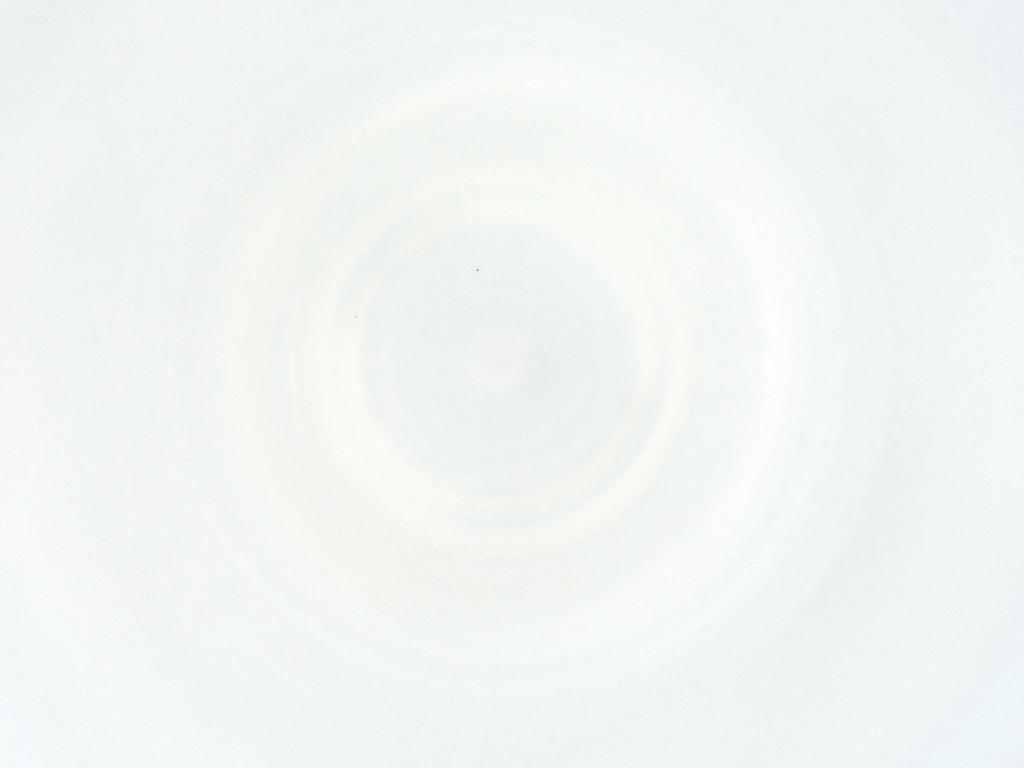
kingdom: Animalia
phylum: Arthropoda
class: Arachnida
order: Mesostigmata
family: Phytoseiidae
